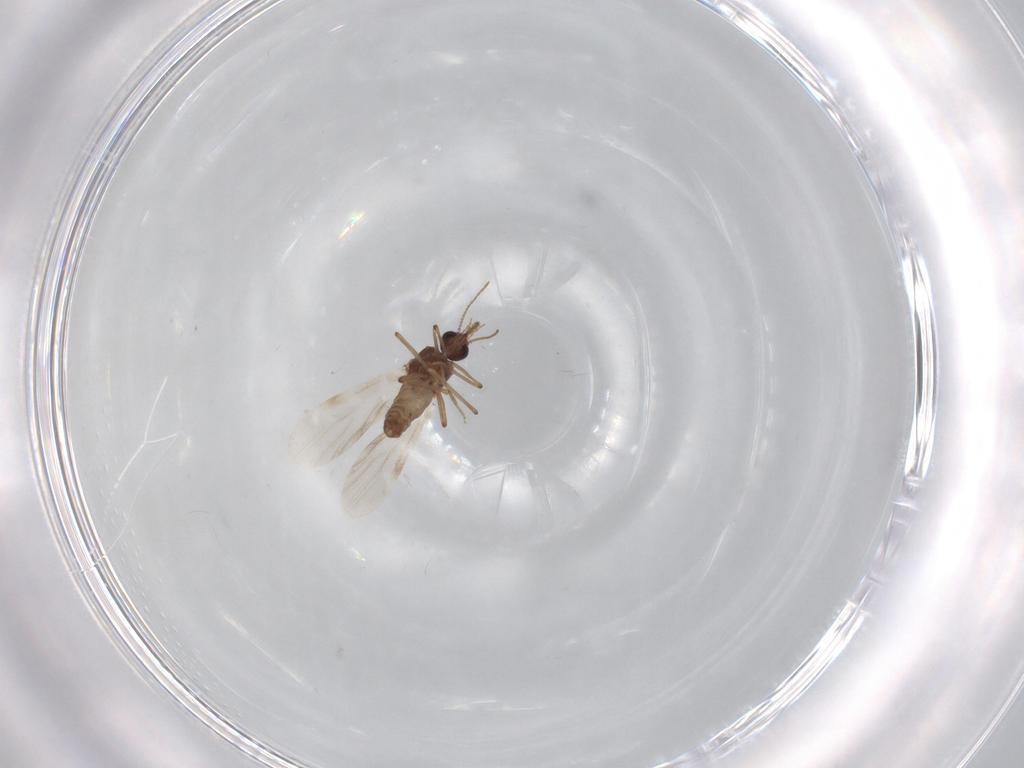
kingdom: Animalia
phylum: Arthropoda
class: Insecta
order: Diptera
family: Ceratopogonidae
